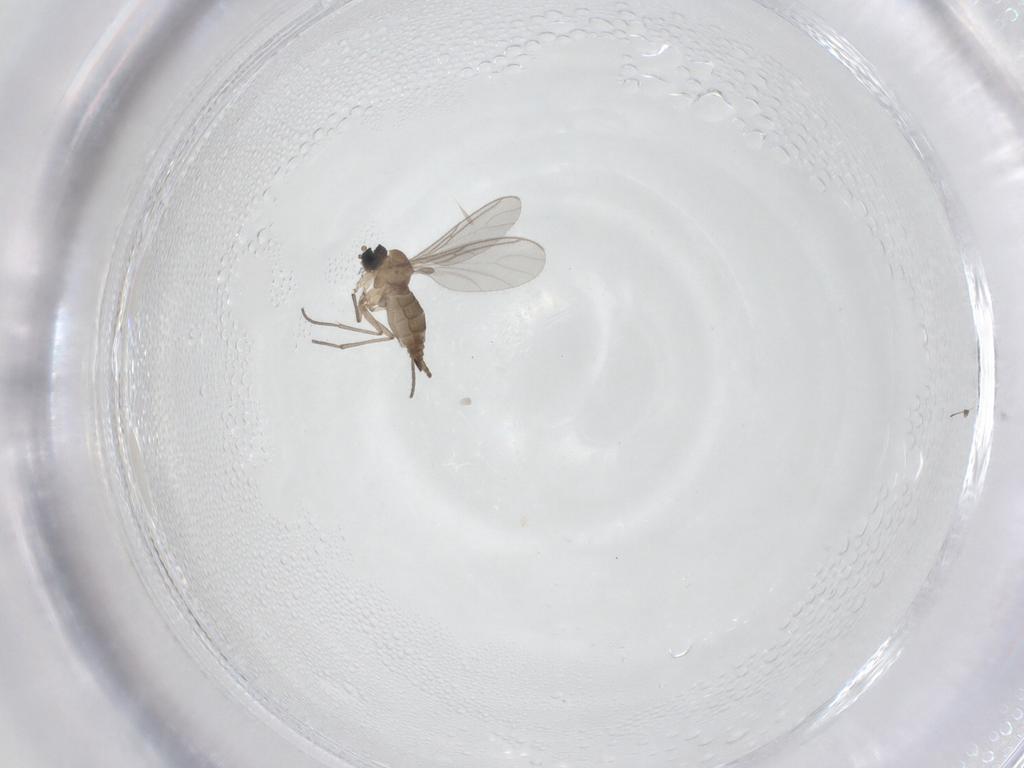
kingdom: Animalia
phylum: Arthropoda
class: Insecta
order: Diptera
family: Sciaridae
